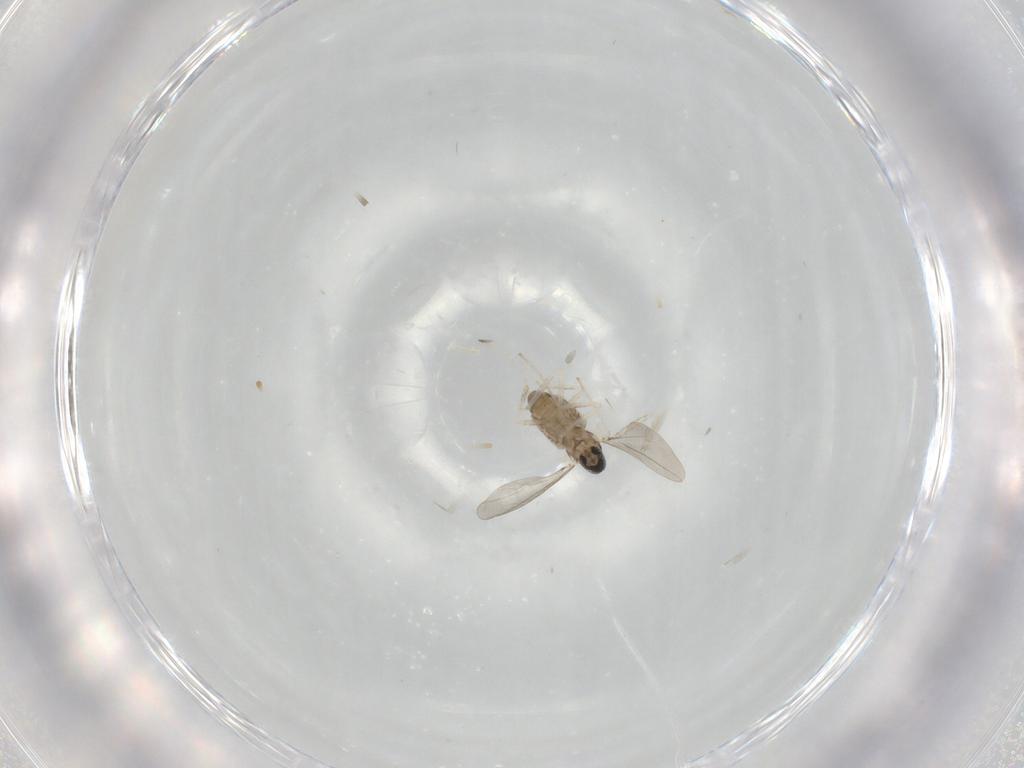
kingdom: Animalia
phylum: Arthropoda
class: Insecta
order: Diptera
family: Cecidomyiidae
